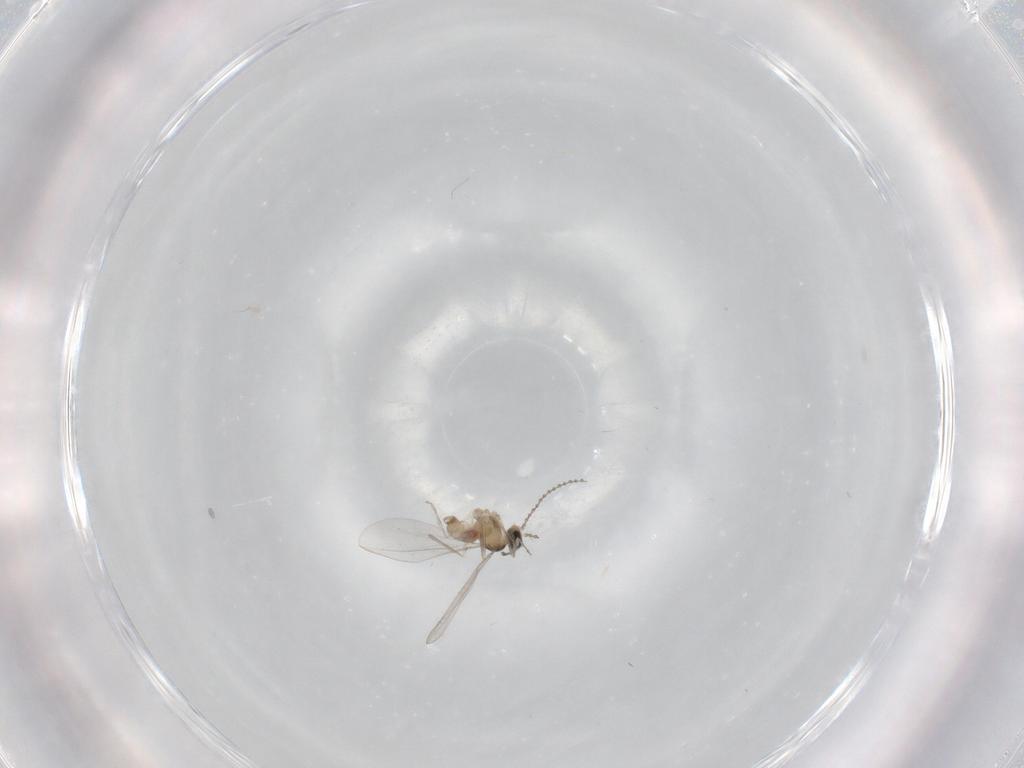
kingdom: Animalia
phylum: Arthropoda
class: Insecta
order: Diptera
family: Cecidomyiidae
